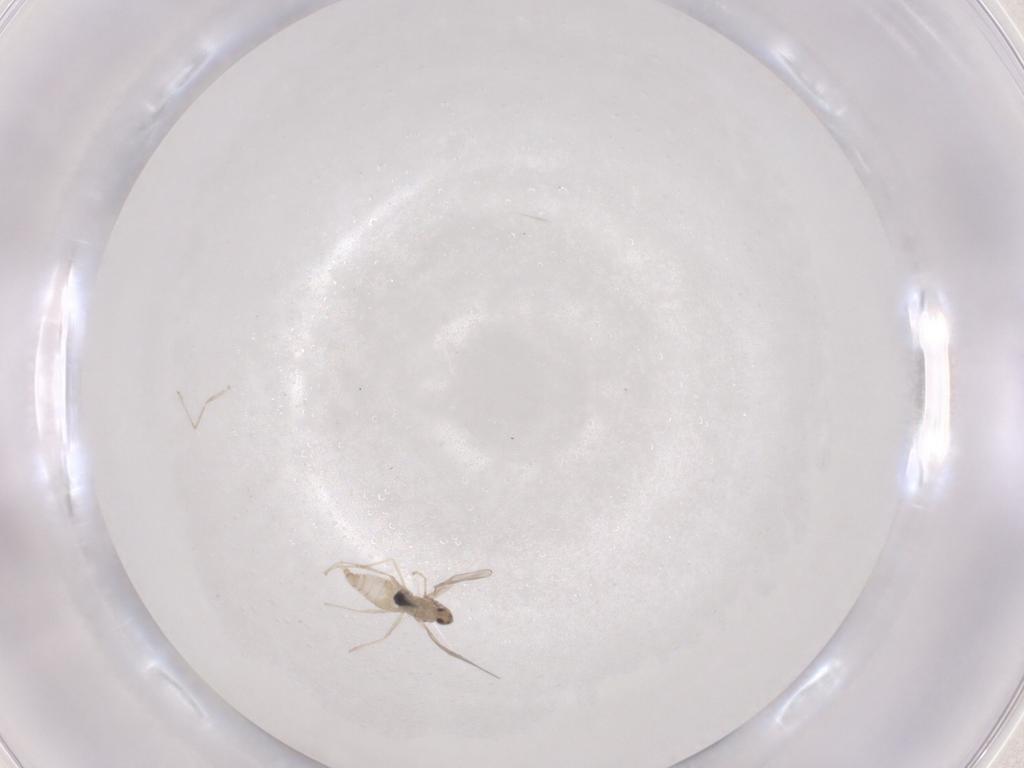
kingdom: Animalia
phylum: Arthropoda
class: Insecta
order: Diptera
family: Cecidomyiidae
